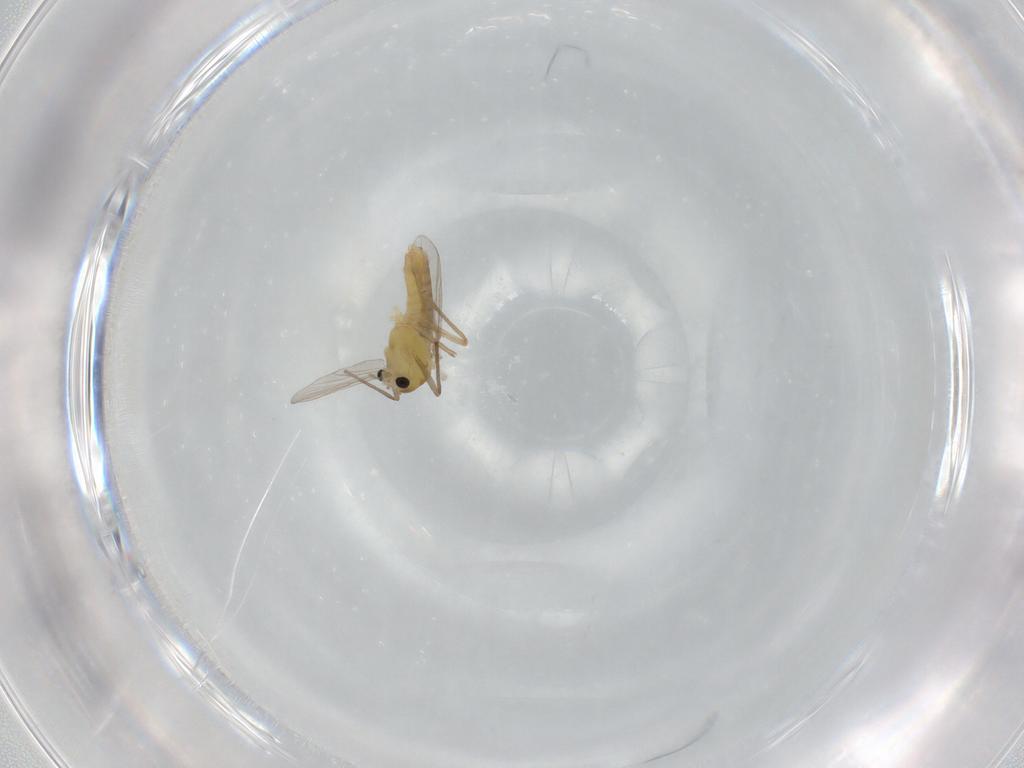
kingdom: Animalia
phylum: Arthropoda
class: Insecta
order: Diptera
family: Chironomidae
